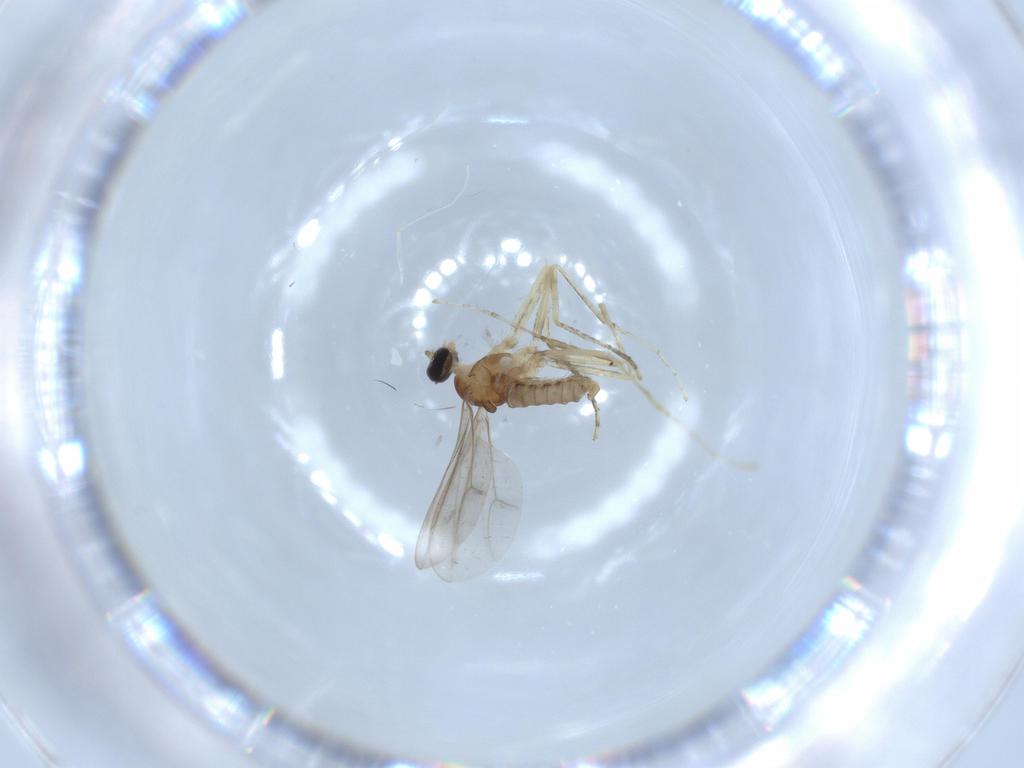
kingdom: Animalia
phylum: Arthropoda
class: Insecta
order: Diptera
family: Cecidomyiidae
